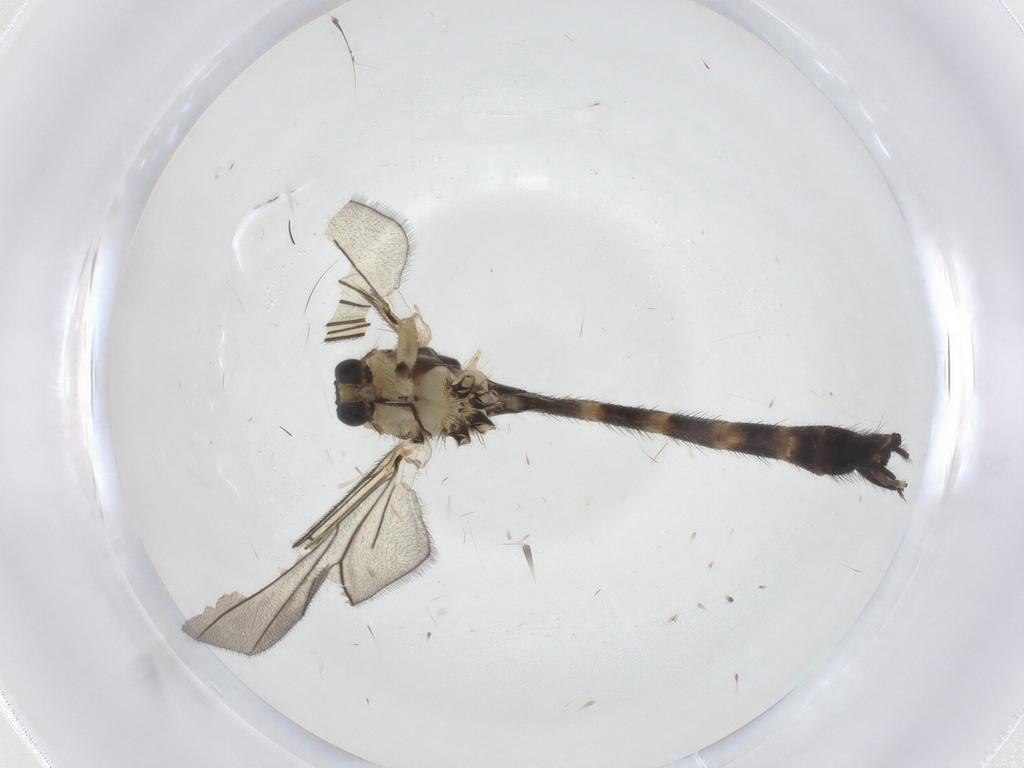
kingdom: Animalia
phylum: Arthropoda
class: Insecta
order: Diptera
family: Mycetophilidae
